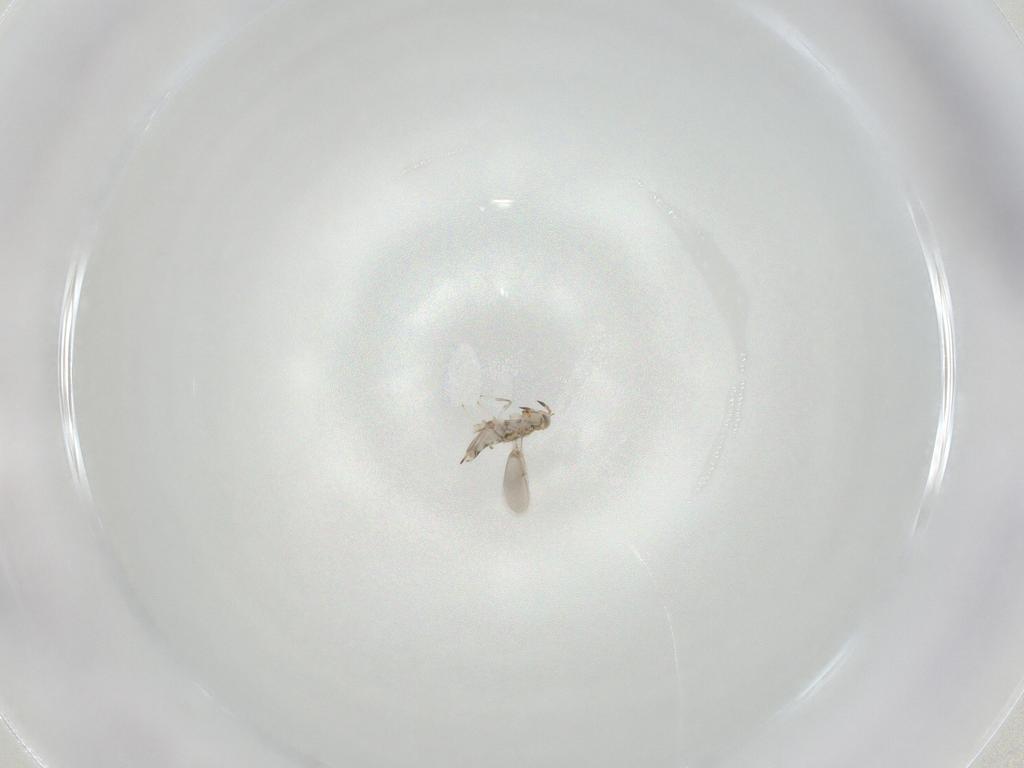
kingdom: Animalia
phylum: Arthropoda
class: Insecta
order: Hymenoptera
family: Aphelinidae
